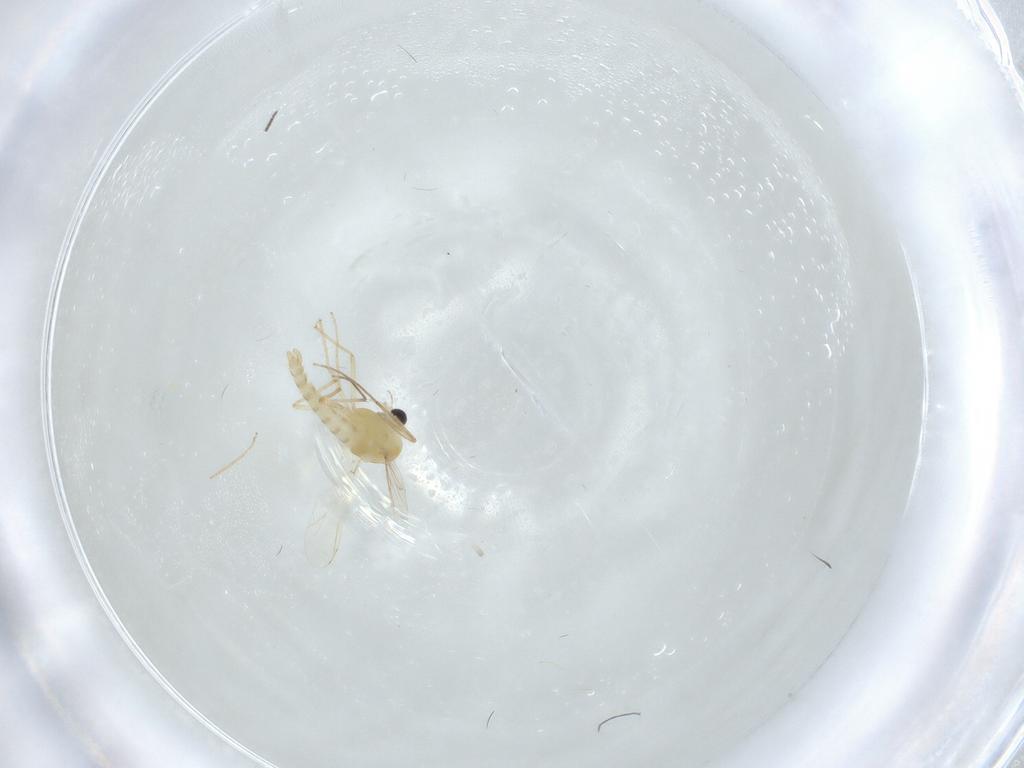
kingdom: Animalia
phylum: Arthropoda
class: Insecta
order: Diptera
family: Chironomidae
